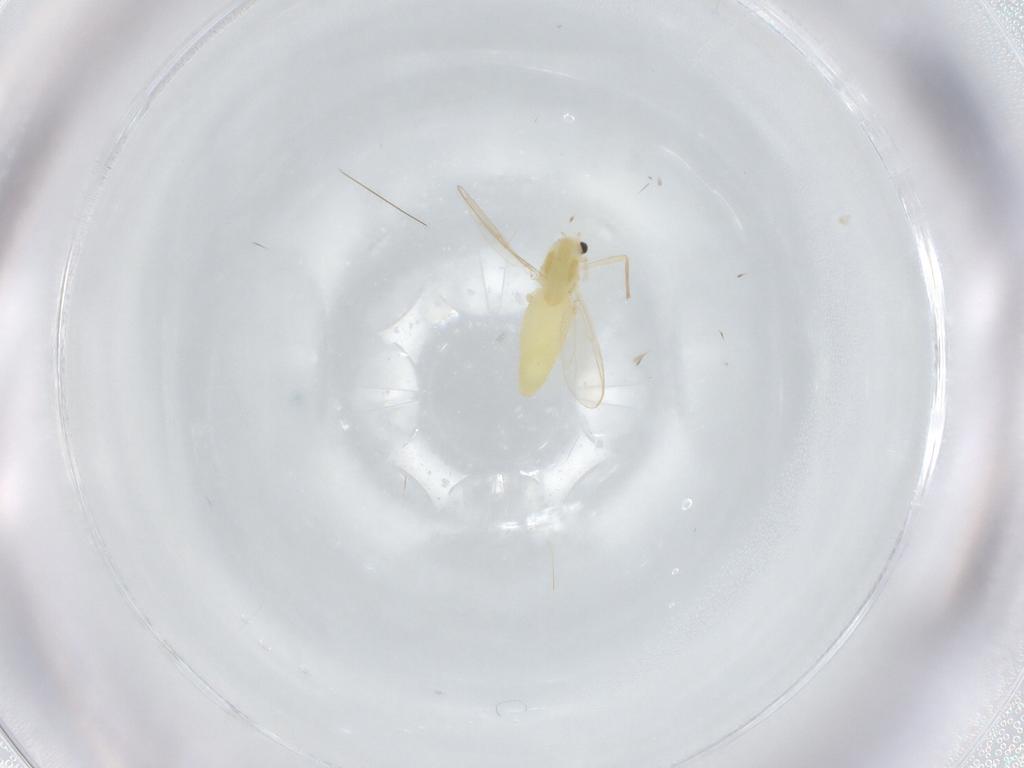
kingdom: Animalia
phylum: Arthropoda
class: Insecta
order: Diptera
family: Chironomidae
